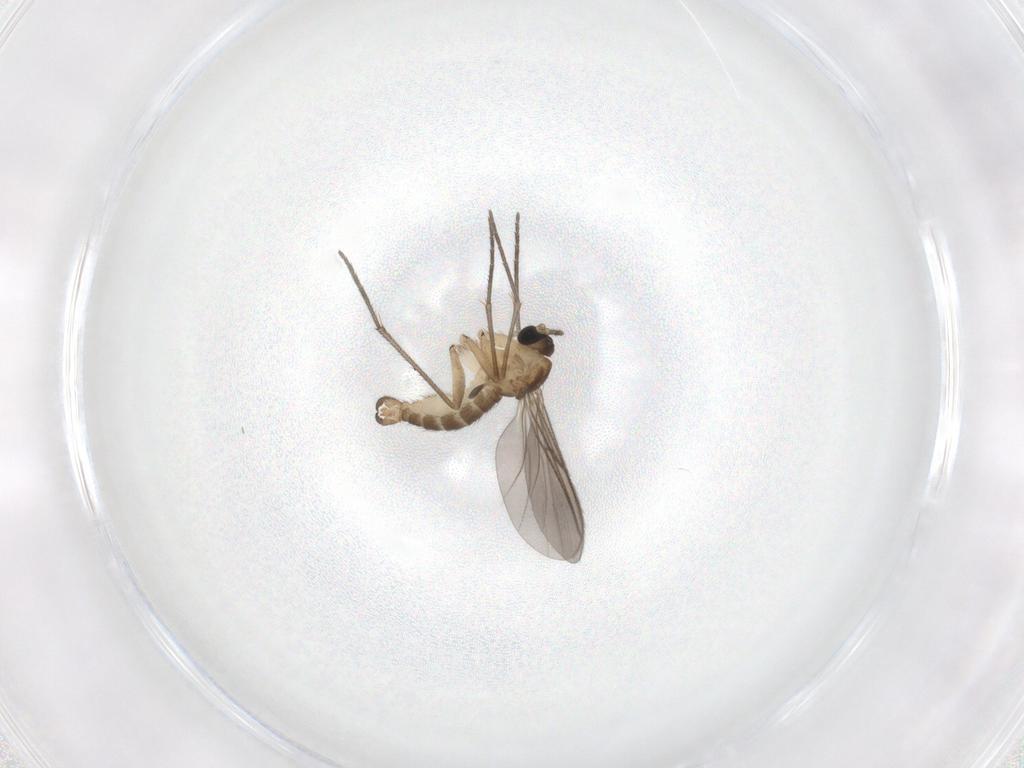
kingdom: Animalia
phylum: Arthropoda
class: Insecta
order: Diptera
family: Sciaridae
